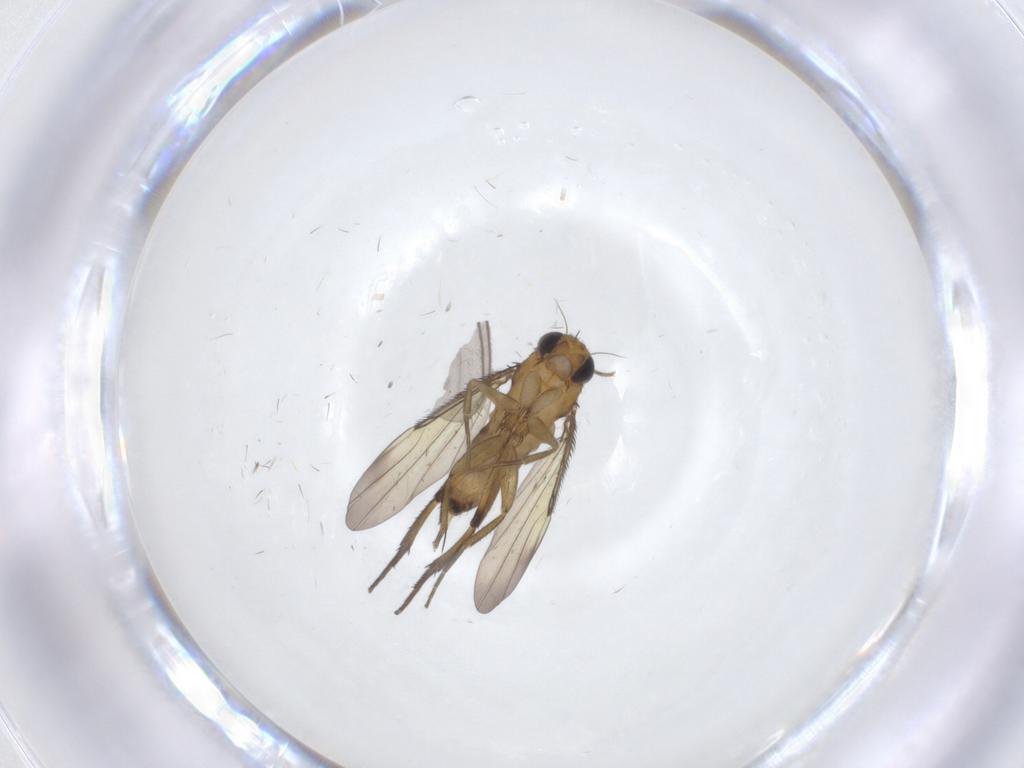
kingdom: Animalia
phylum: Arthropoda
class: Insecta
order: Diptera
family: Phoridae
